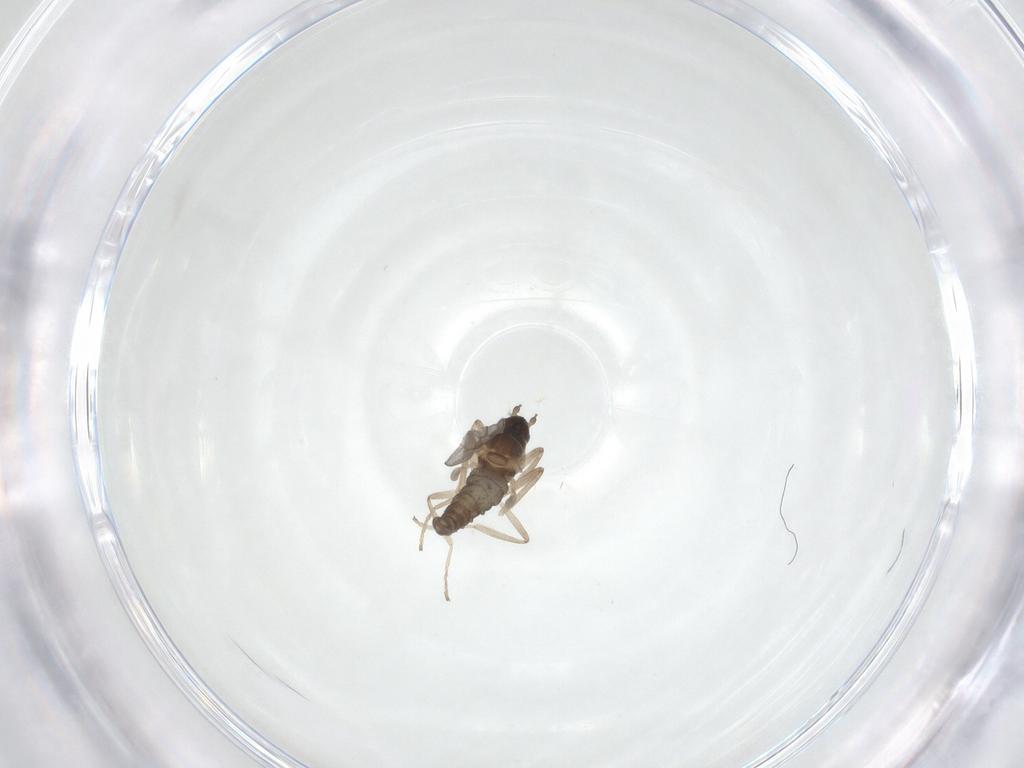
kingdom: Animalia
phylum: Arthropoda
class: Insecta
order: Diptera
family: Cecidomyiidae
